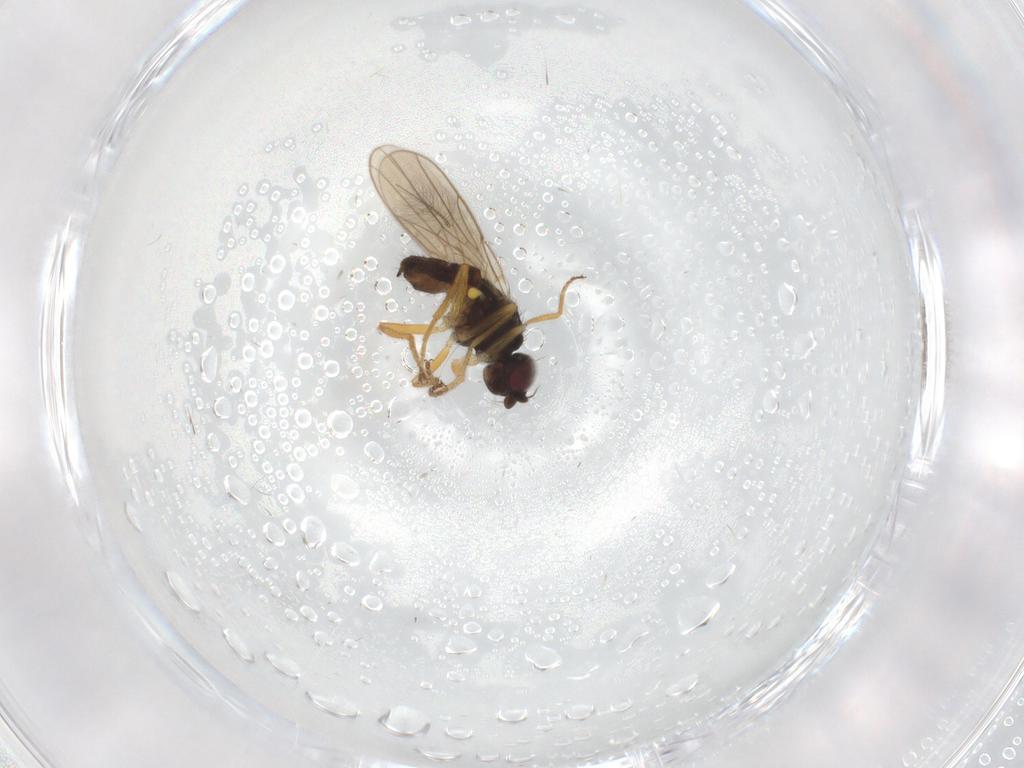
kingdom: Animalia
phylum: Arthropoda
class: Insecta
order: Diptera
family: Chloropidae
